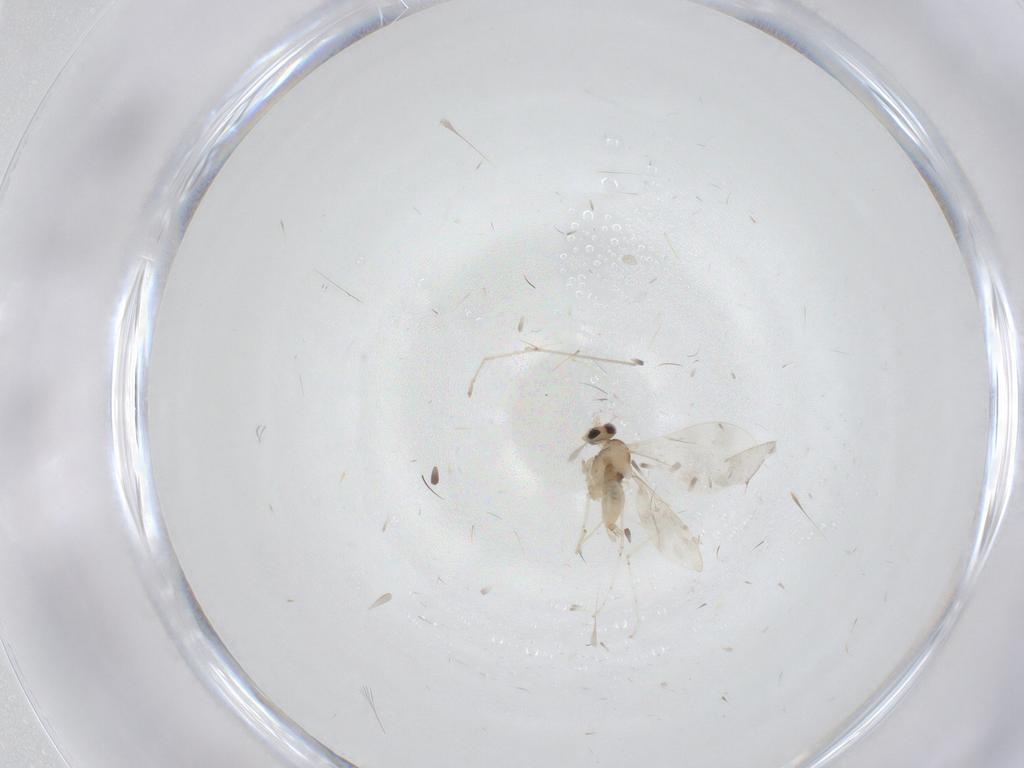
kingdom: Animalia
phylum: Arthropoda
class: Insecta
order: Diptera
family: Cecidomyiidae
